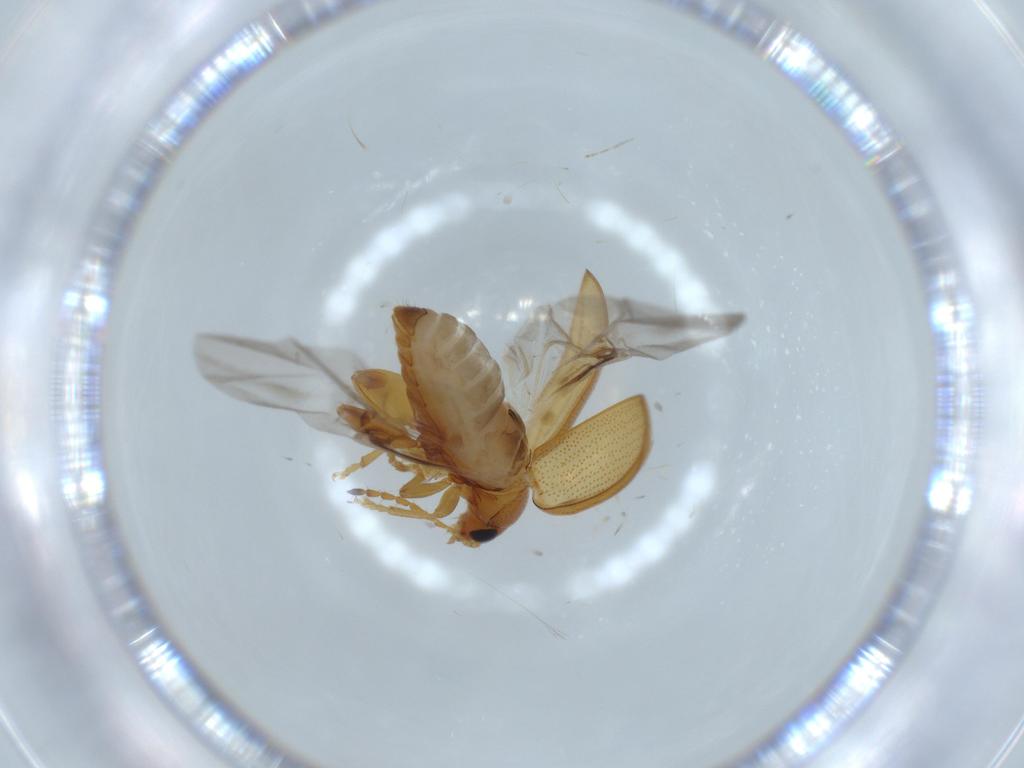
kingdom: Animalia
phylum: Arthropoda
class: Insecta
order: Coleoptera
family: Chrysomelidae
